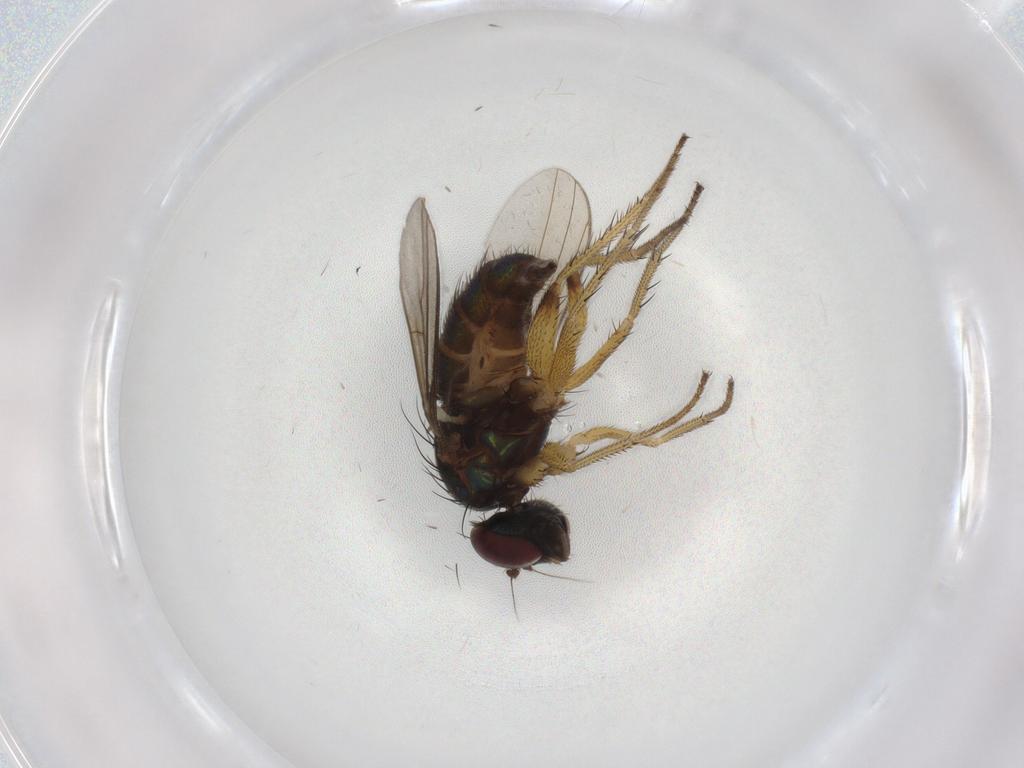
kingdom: Animalia
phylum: Arthropoda
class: Insecta
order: Diptera
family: Dolichopodidae
